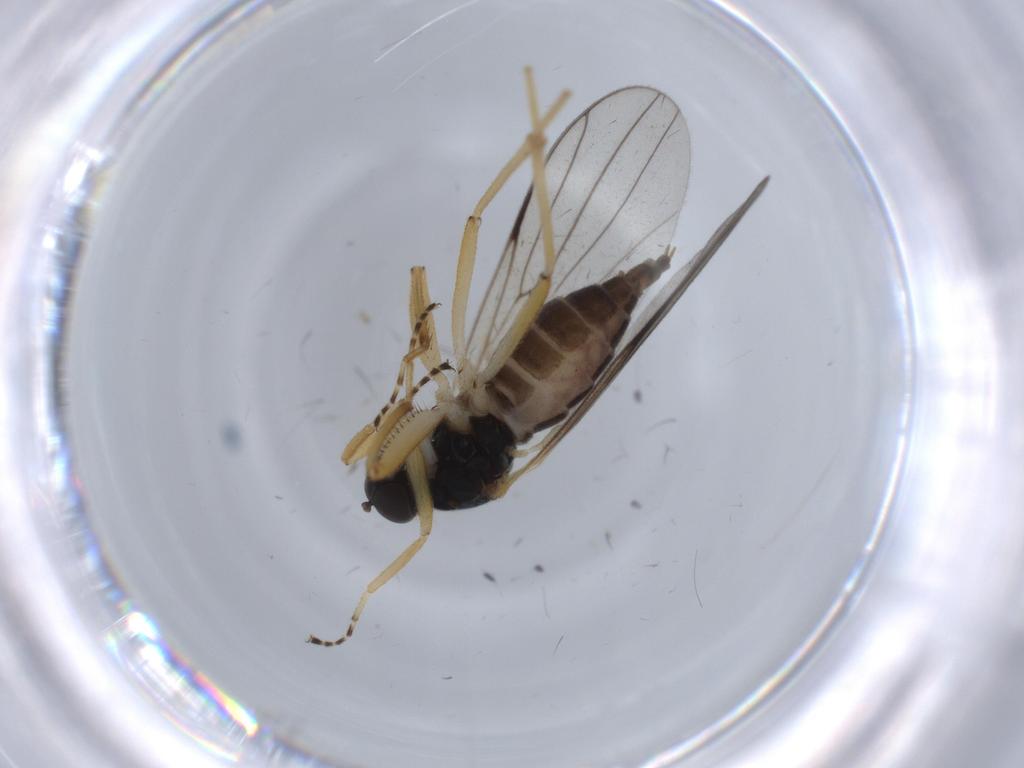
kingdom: Animalia
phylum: Arthropoda
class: Insecta
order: Diptera
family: Hybotidae
